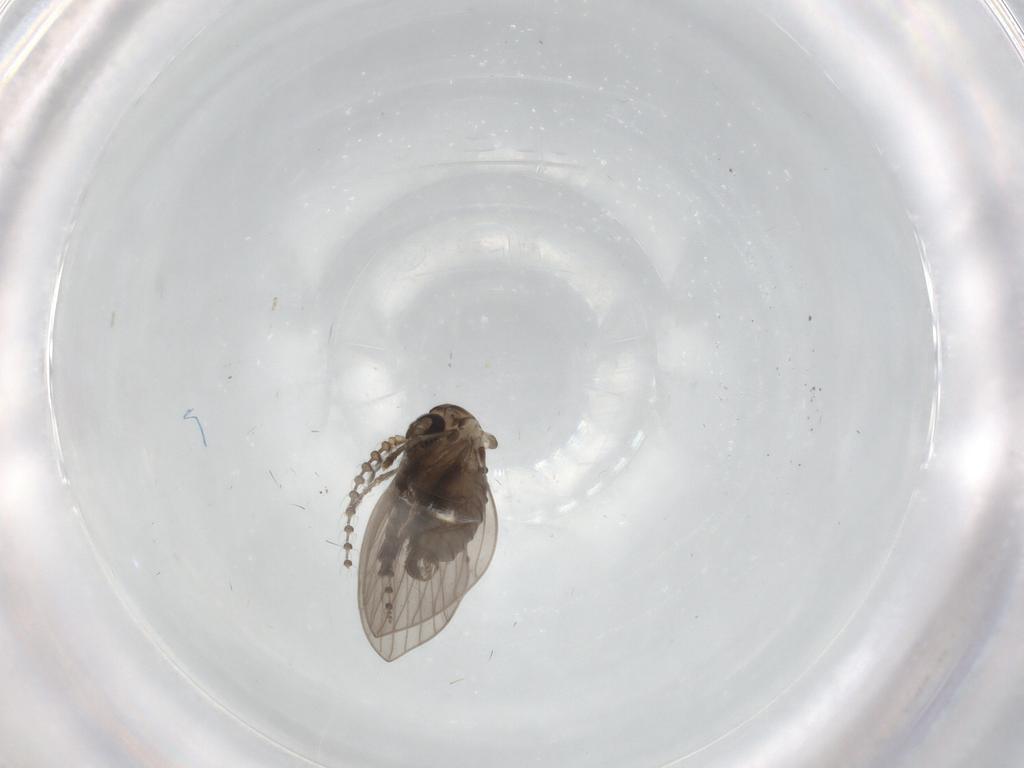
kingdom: Animalia
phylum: Arthropoda
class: Insecta
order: Diptera
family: Psychodidae
